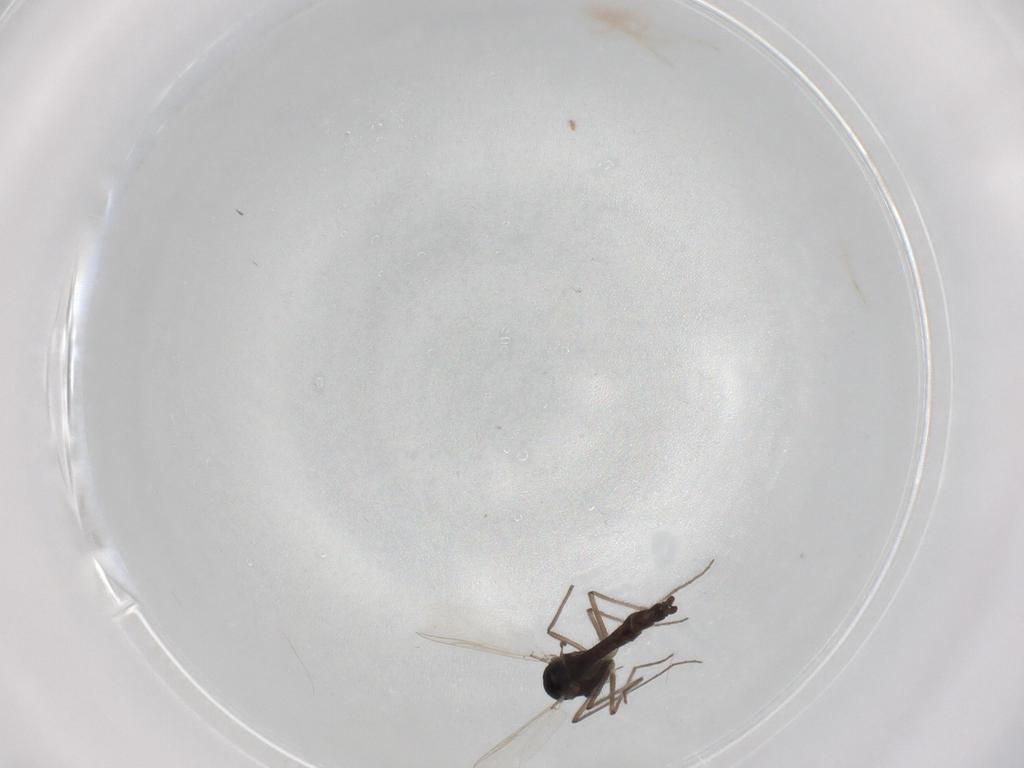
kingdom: Animalia
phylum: Arthropoda
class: Insecta
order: Diptera
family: Psychodidae
